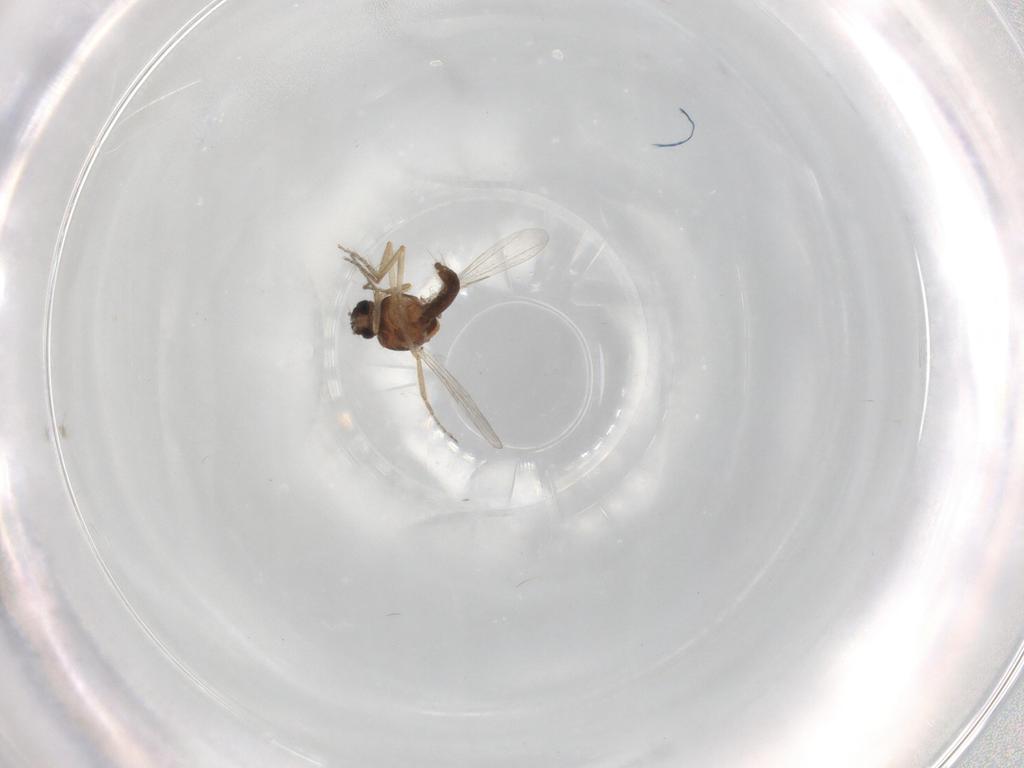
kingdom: Animalia
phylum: Arthropoda
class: Insecta
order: Diptera
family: Ceratopogonidae
